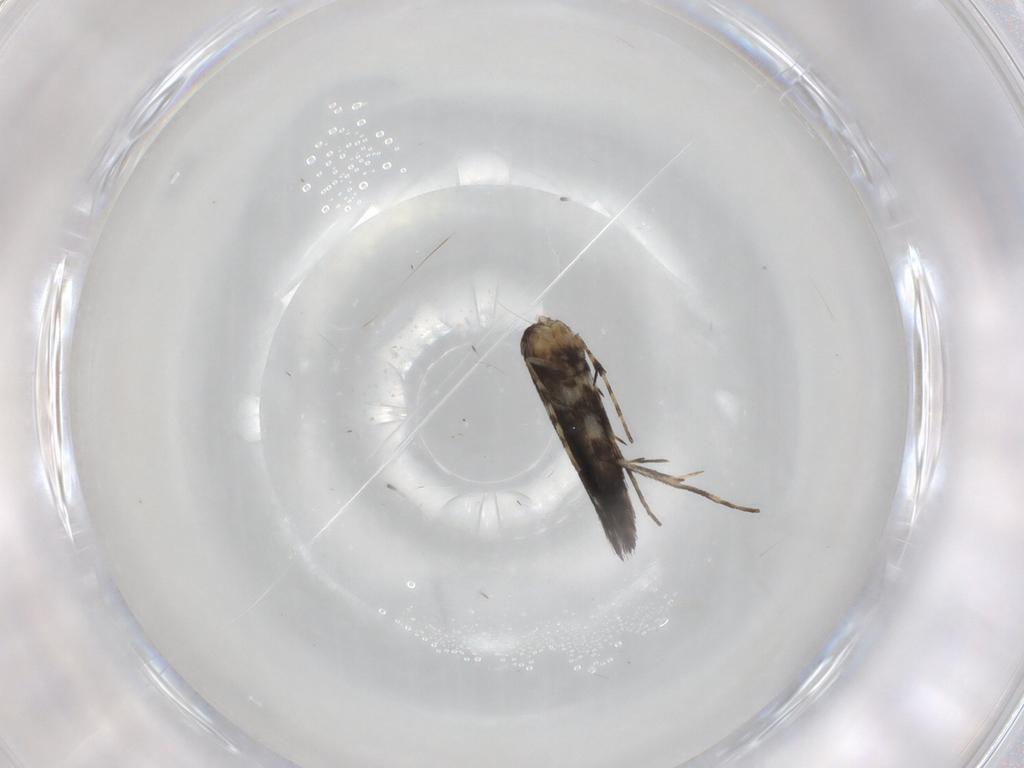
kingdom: Animalia
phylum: Arthropoda
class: Insecta
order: Lepidoptera
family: Gracillariidae
